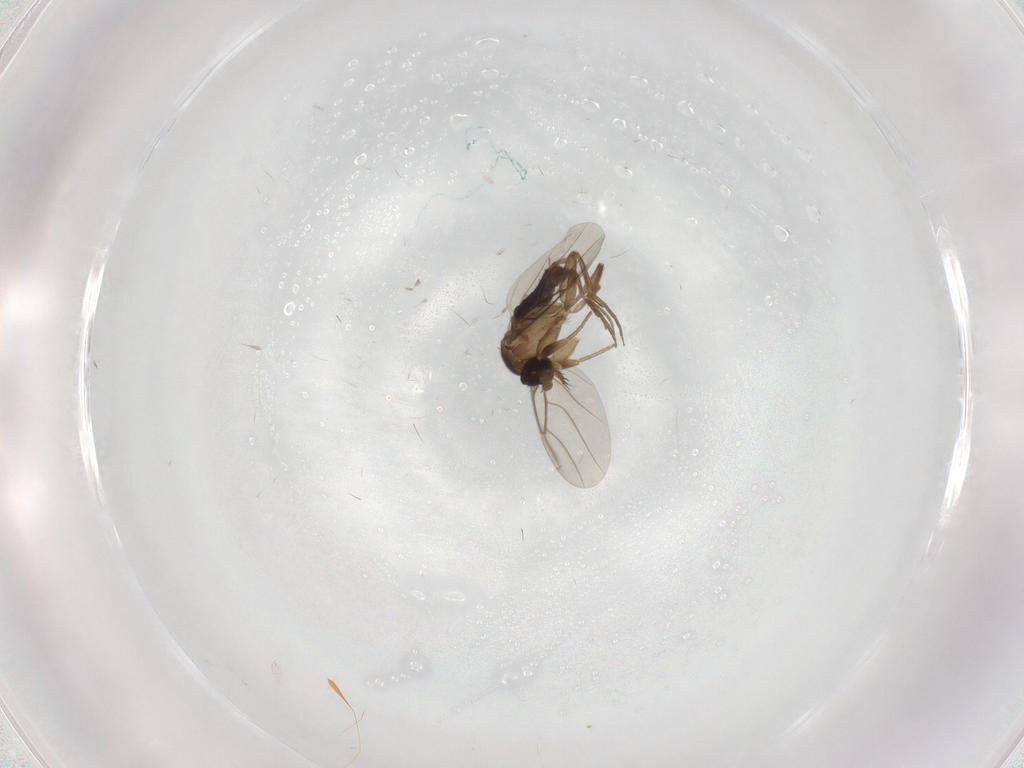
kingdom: Animalia
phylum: Arthropoda
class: Insecta
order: Diptera
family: Phoridae
